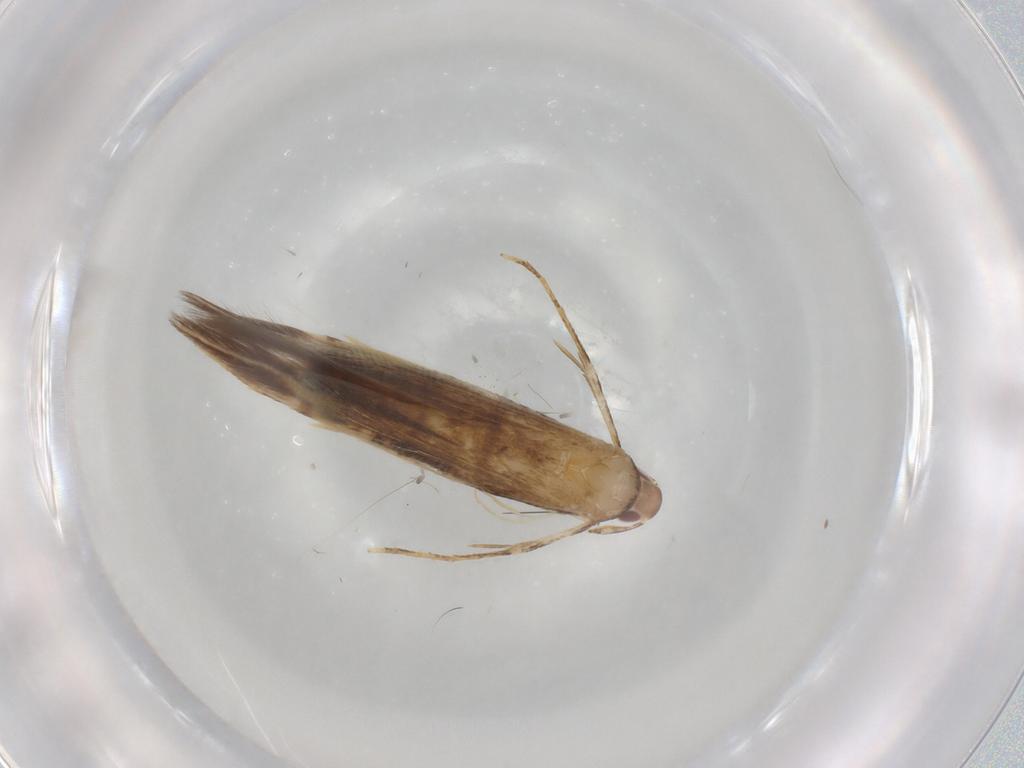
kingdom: Animalia
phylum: Arthropoda
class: Insecta
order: Lepidoptera
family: Cosmopterigidae
